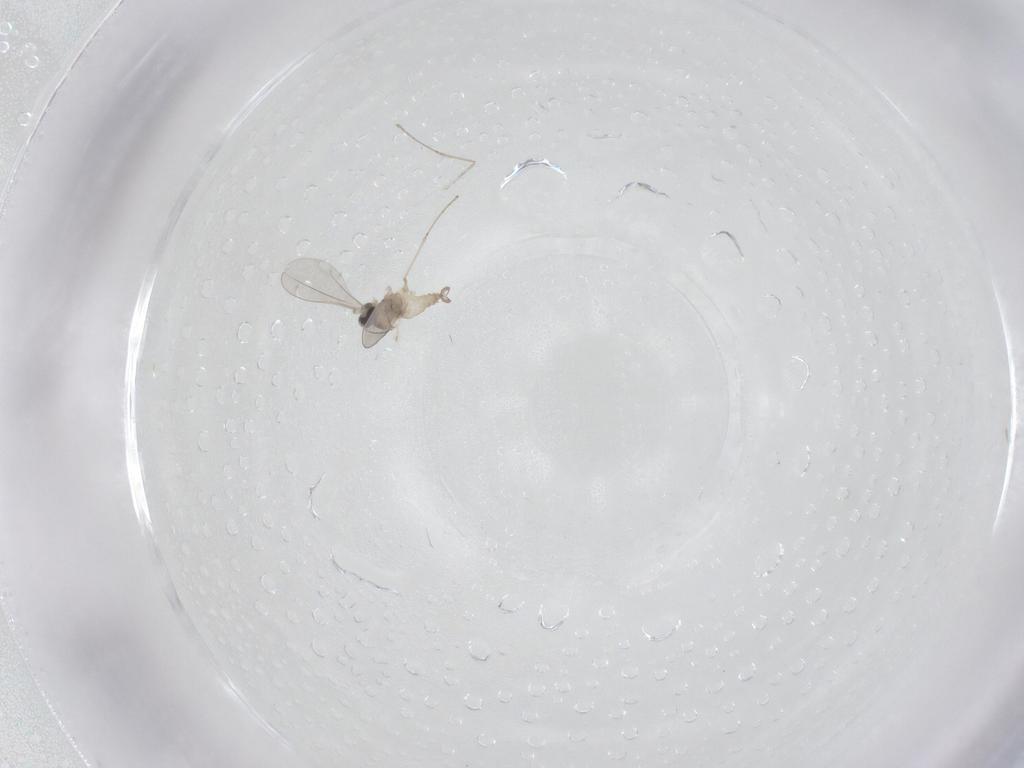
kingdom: Animalia
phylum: Arthropoda
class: Insecta
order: Diptera
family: Cecidomyiidae
